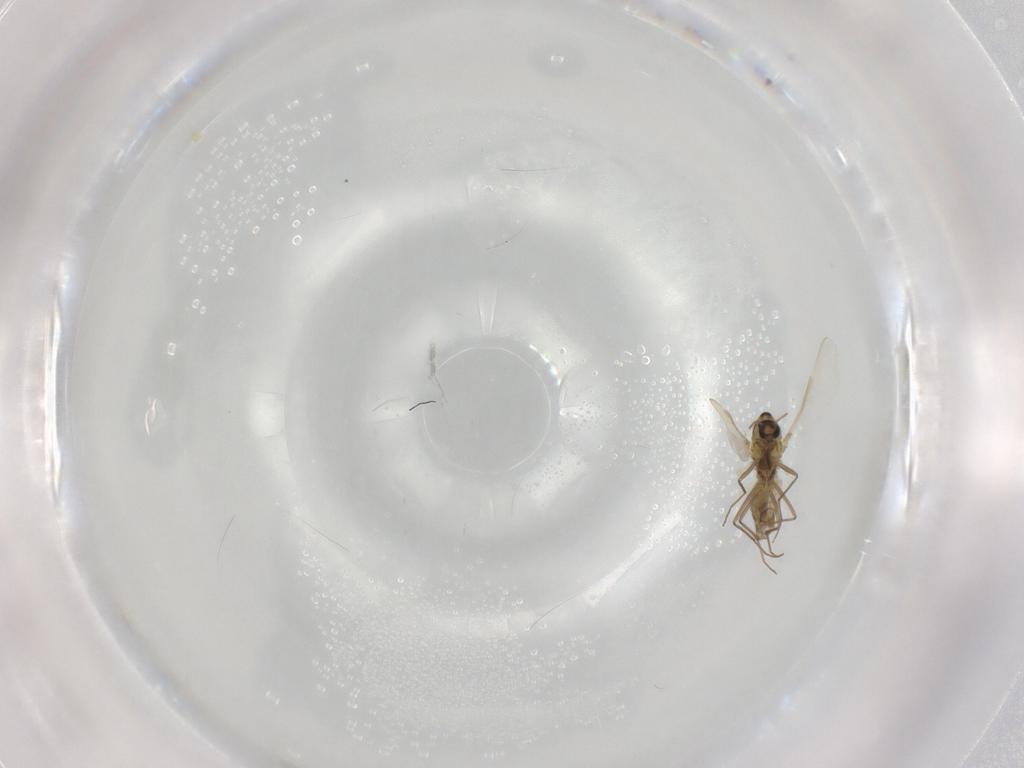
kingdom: Animalia
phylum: Arthropoda
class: Insecta
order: Diptera
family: Chironomidae
